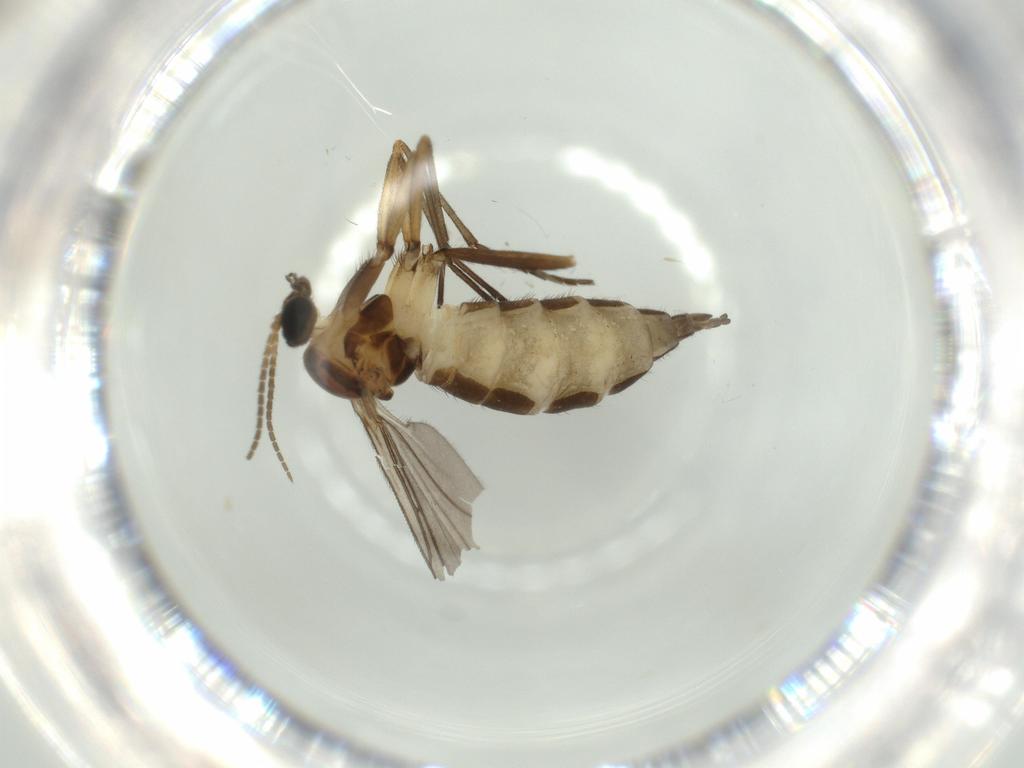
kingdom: Animalia
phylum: Arthropoda
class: Insecta
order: Diptera
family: Sciaridae
